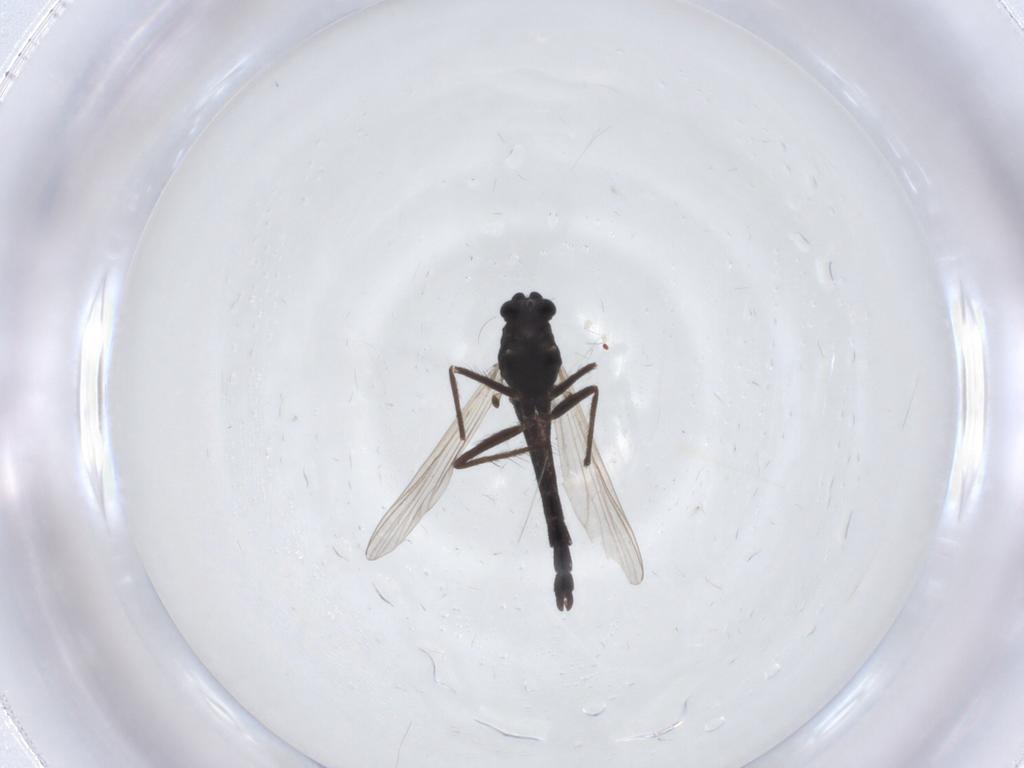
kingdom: Animalia
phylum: Arthropoda
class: Insecta
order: Diptera
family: Chironomidae
